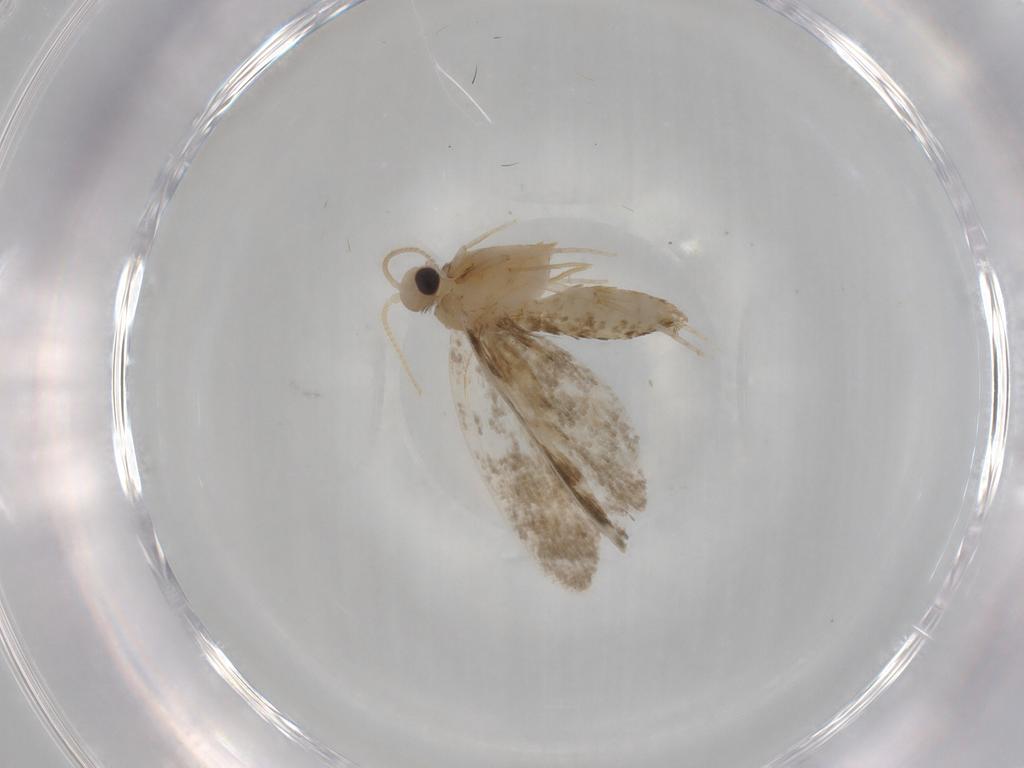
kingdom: Animalia
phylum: Arthropoda
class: Insecta
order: Lepidoptera
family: Psychidae
